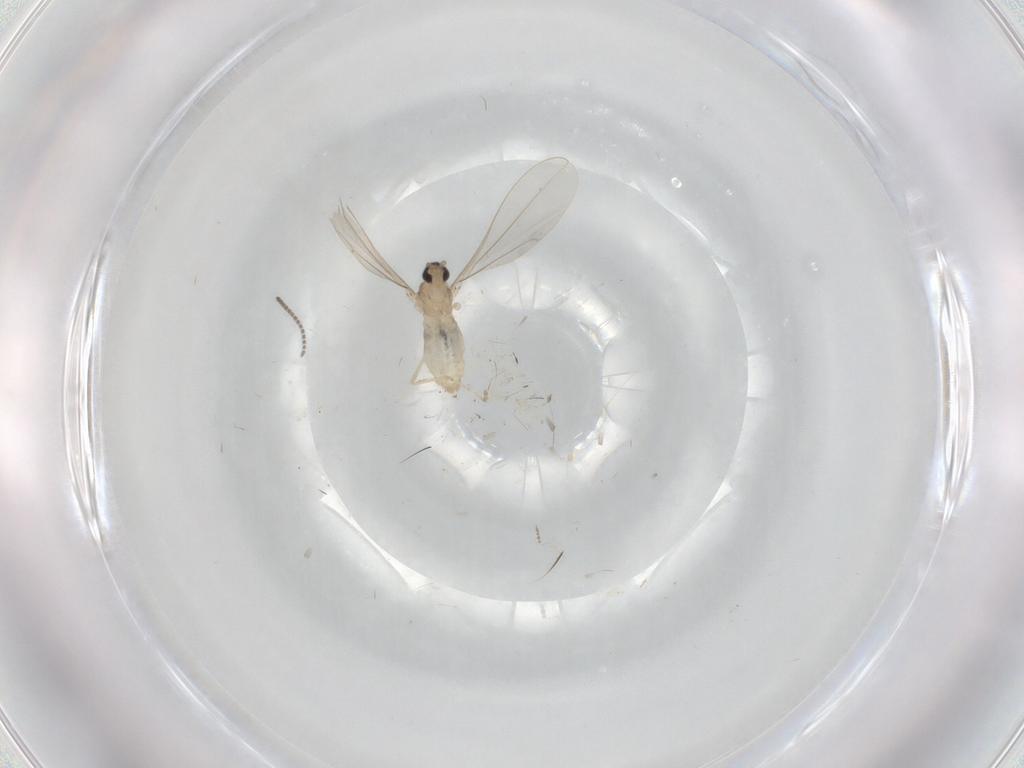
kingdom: Animalia
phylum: Arthropoda
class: Insecta
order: Diptera
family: Cecidomyiidae
